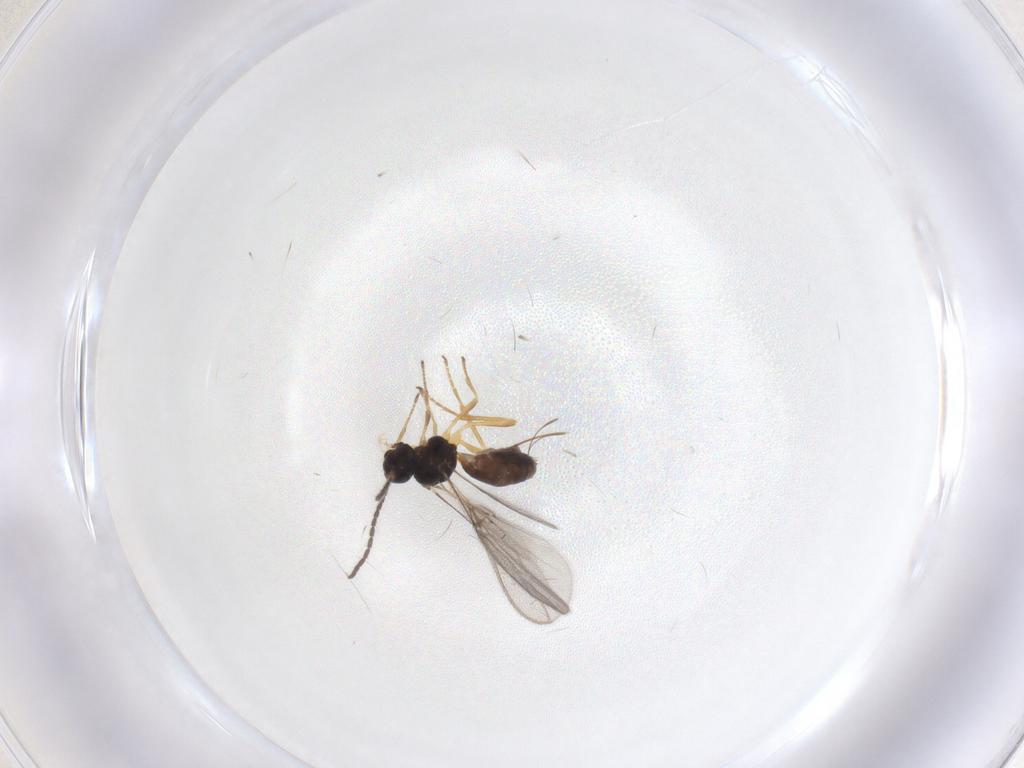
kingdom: Animalia
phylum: Arthropoda
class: Insecta
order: Hymenoptera
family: Braconidae
